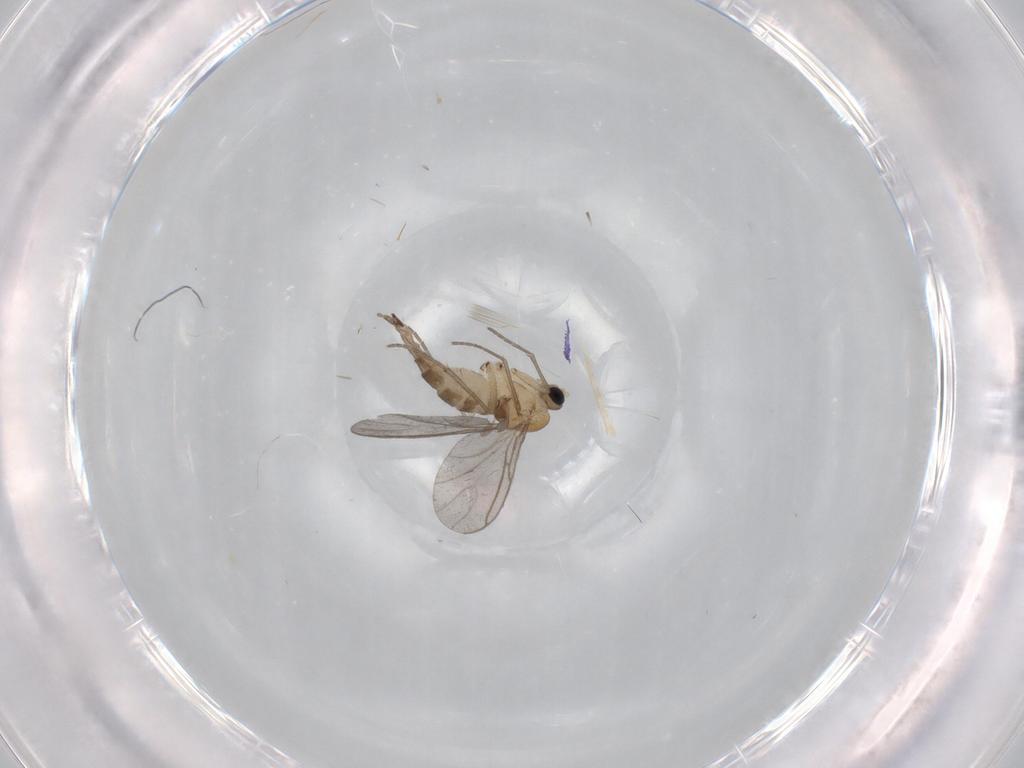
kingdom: Animalia
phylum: Arthropoda
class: Insecta
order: Diptera
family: Sciaridae
